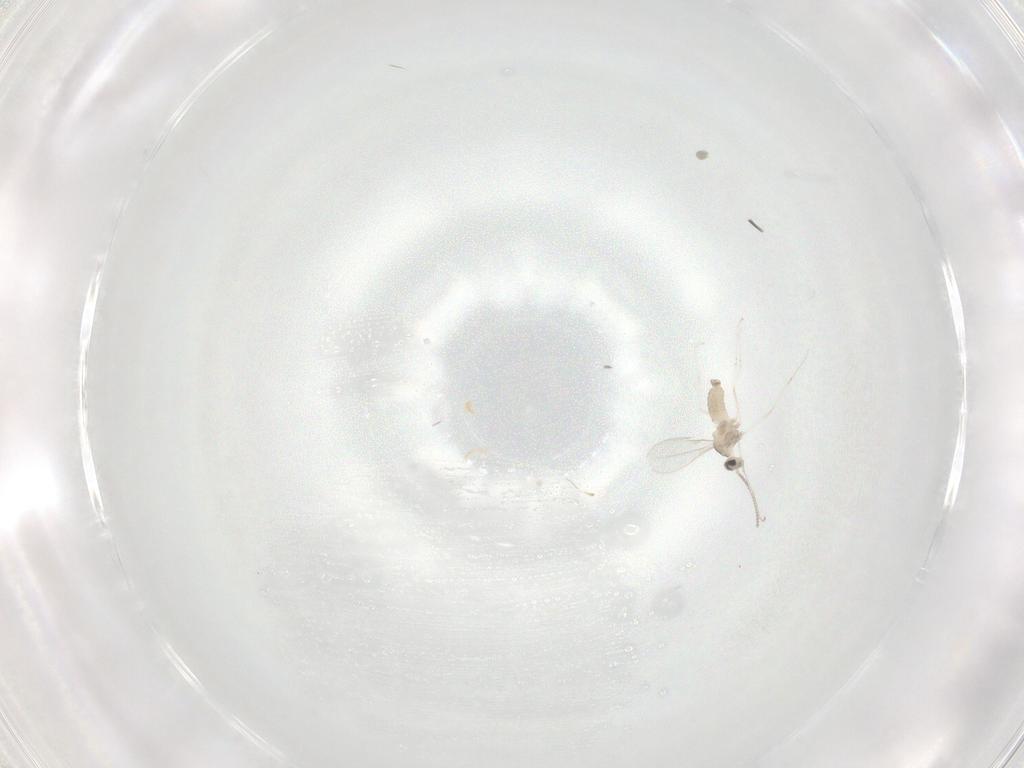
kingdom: Animalia
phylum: Arthropoda
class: Insecta
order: Diptera
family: Cecidomyiidae
